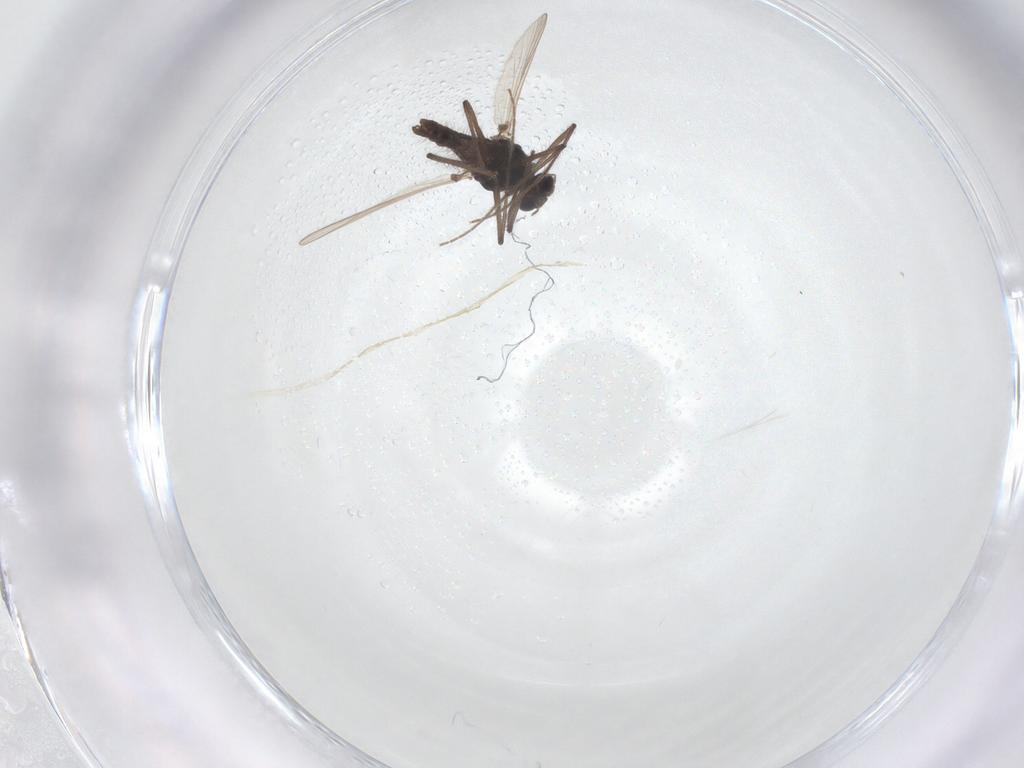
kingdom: Animalia
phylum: Arthropoda
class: Insecta
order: Diptera
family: Chironomidae
